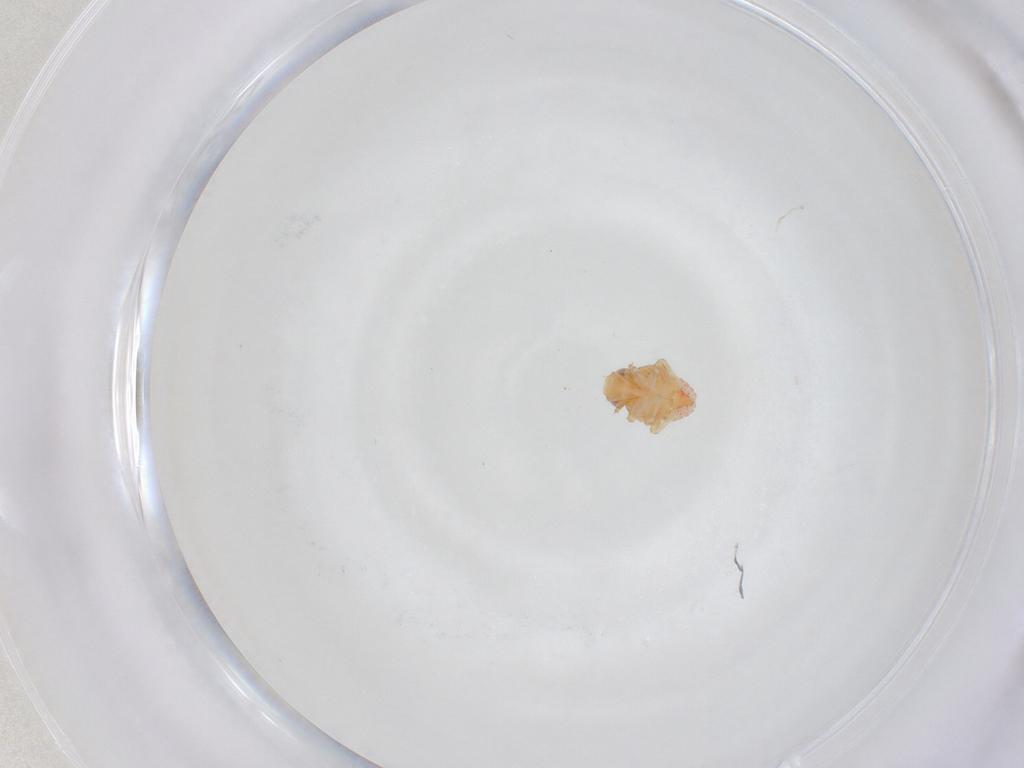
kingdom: Animalia
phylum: Arthropoda
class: Insecta
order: Hemiptera
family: Issidae
